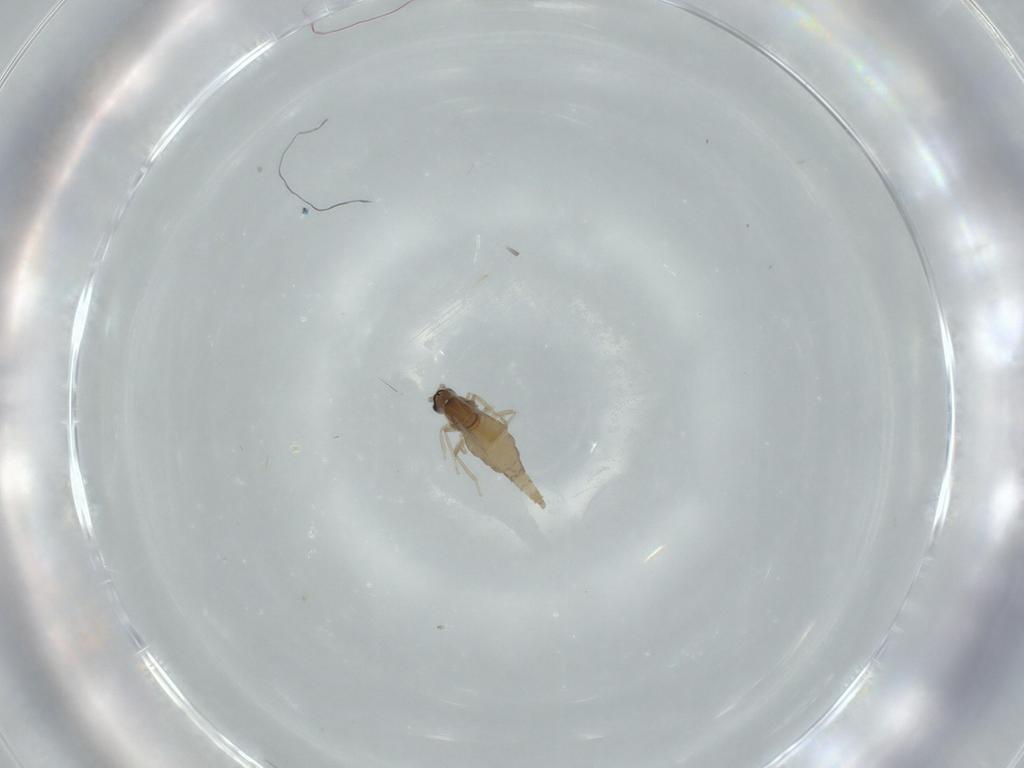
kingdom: Animalia
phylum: Arthropoda
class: Insecta
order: Diptera
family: Cecidomyiidae
